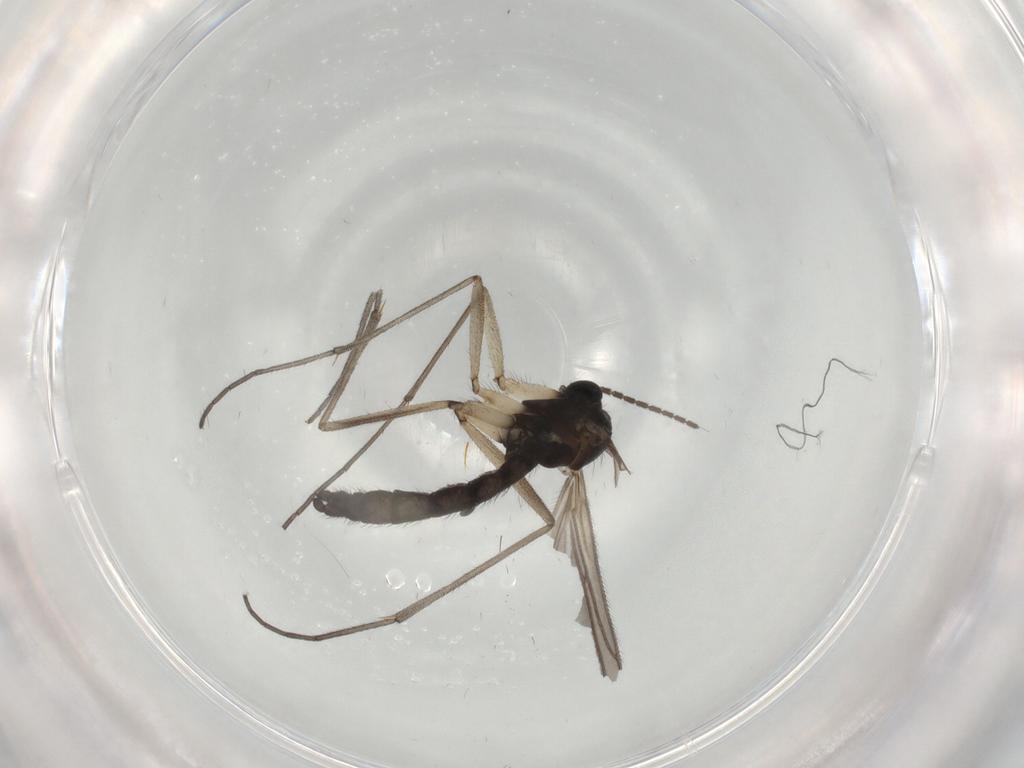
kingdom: Animalia
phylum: Arthropoda
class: Insecta
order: Diptera
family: Sciaridae
